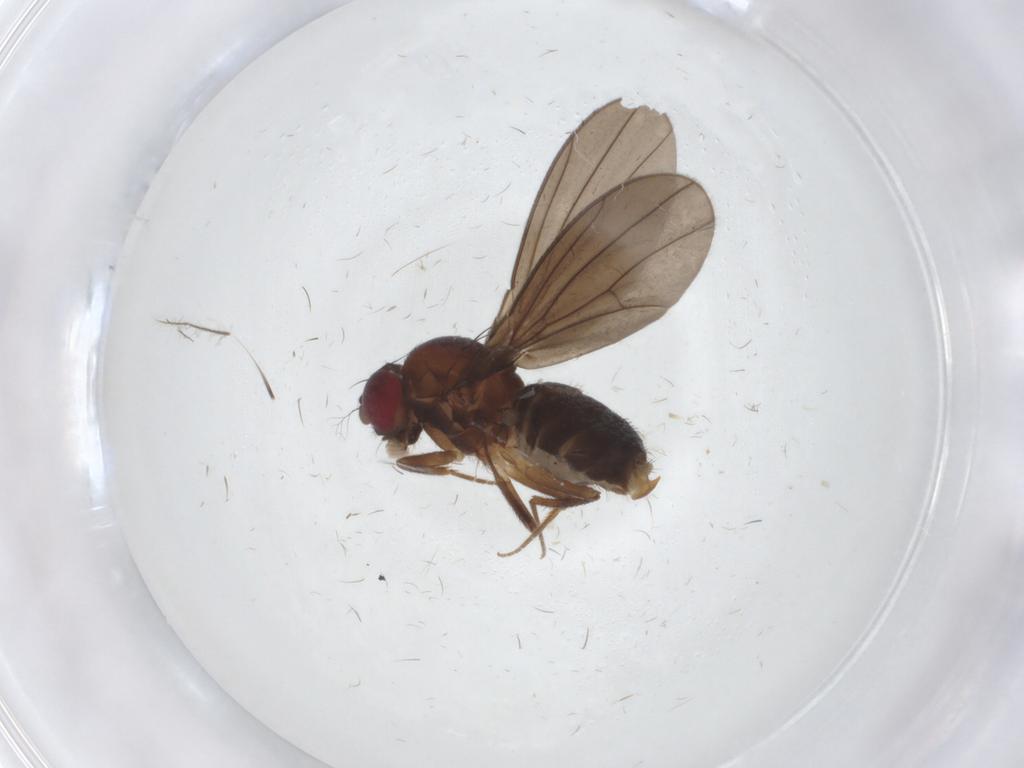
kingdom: Animalia
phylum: Arthropoda
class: Insecta
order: Diptera
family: Drosophilidae
